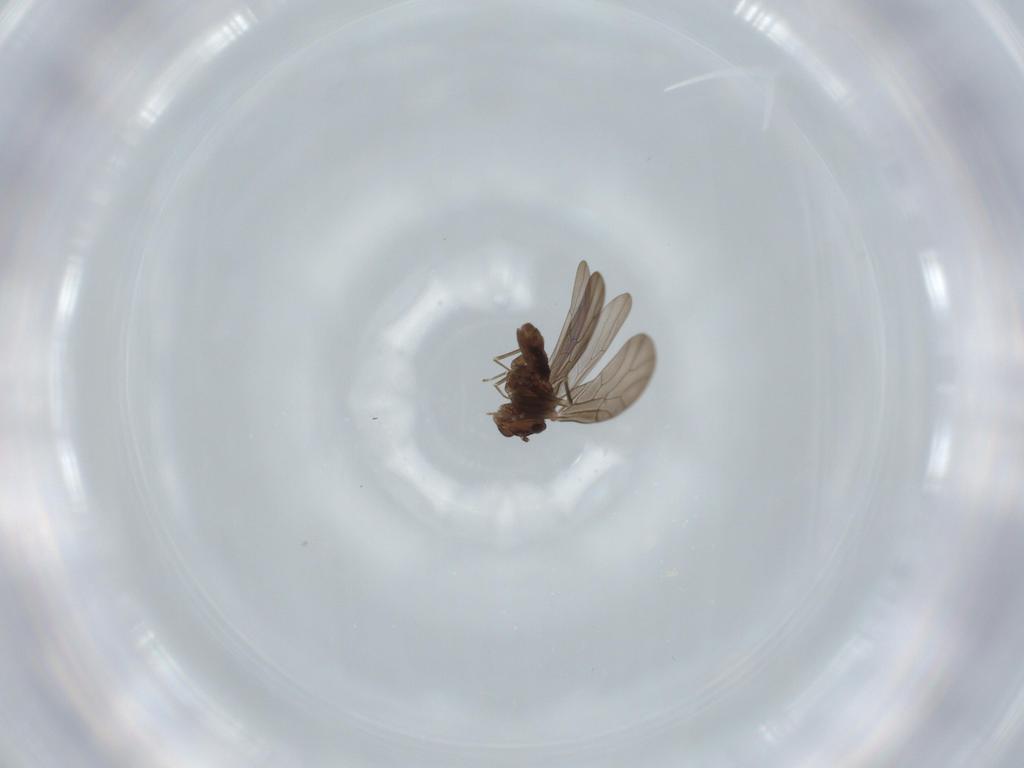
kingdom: Animalia
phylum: Arthropoda
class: Insecta
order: Psocodea
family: Lepidopsocidae
